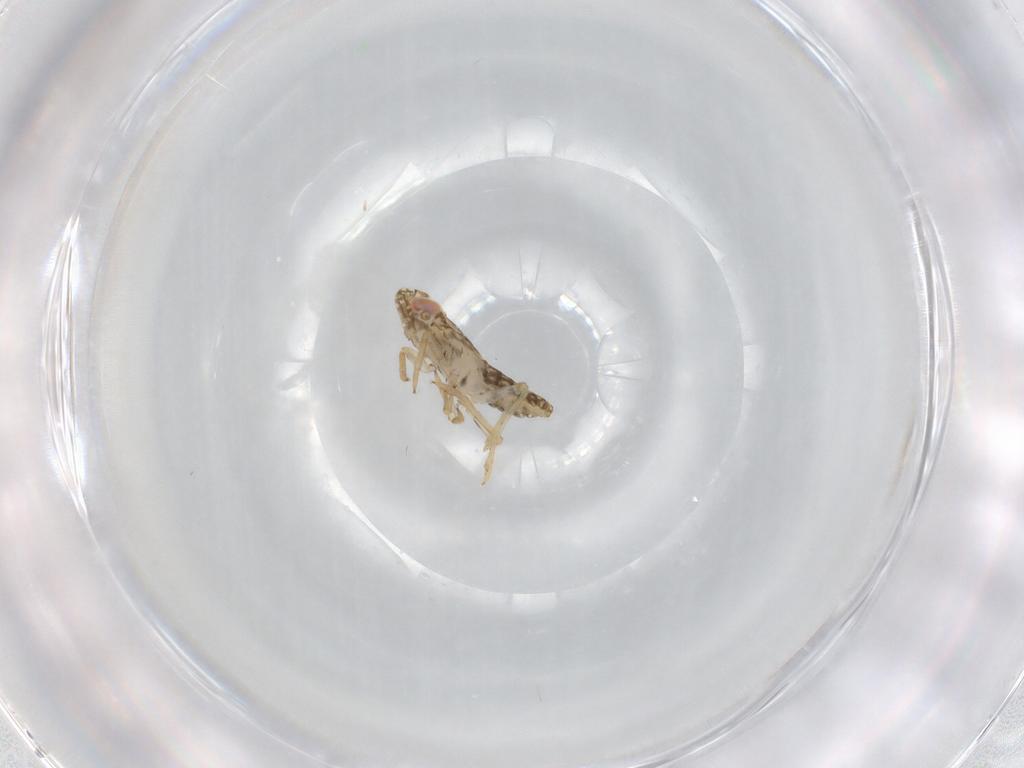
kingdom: Animalia
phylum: Arthropoda
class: Insecta
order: Hemiptera
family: Delphacidae
